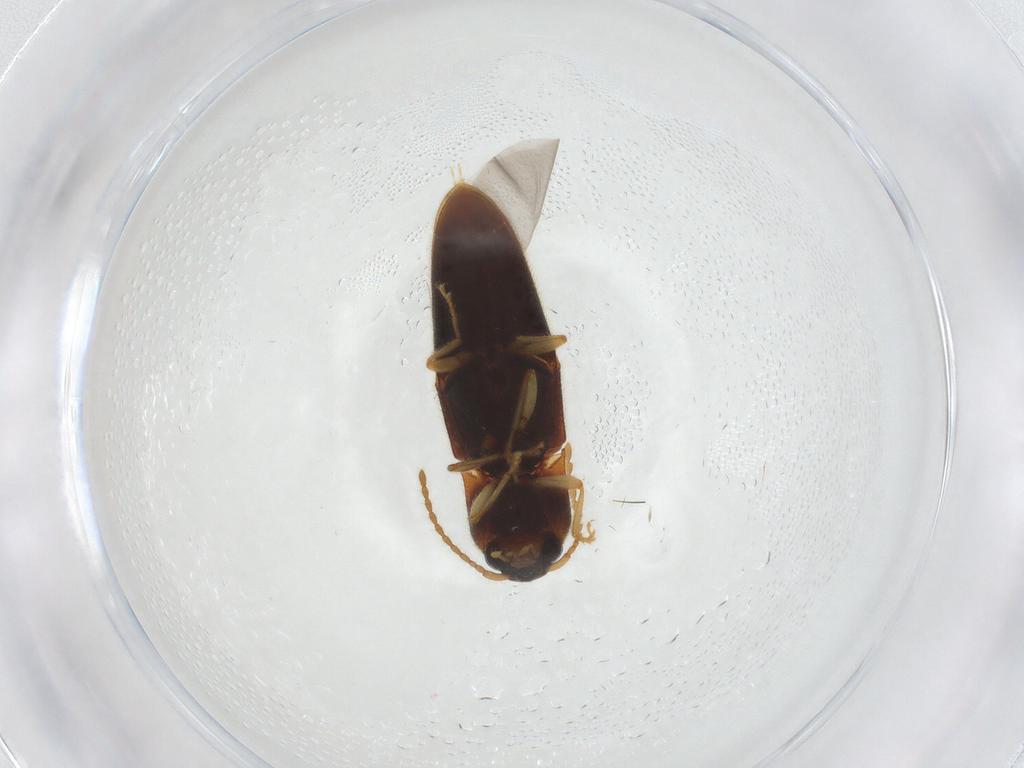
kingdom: Animalia
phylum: Arthropoda
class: Insecta
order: Coleoptera
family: Elateridae
